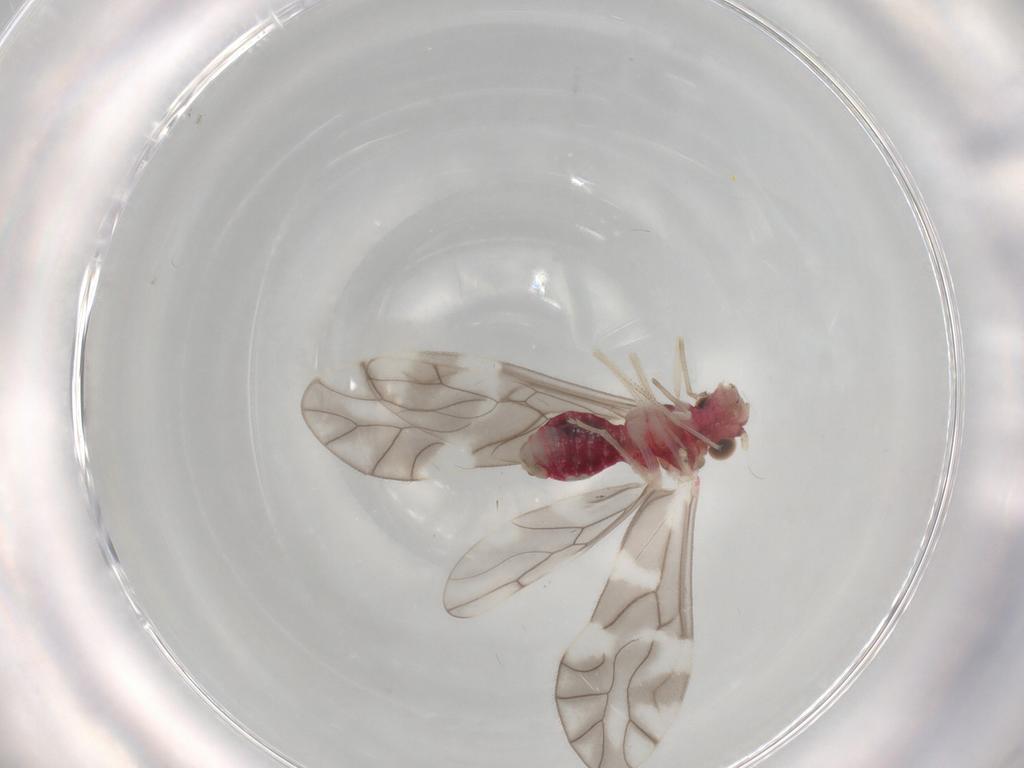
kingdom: Animalia
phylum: Arthropoda
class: Insecta
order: Psocodea
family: Caeciliusidae
